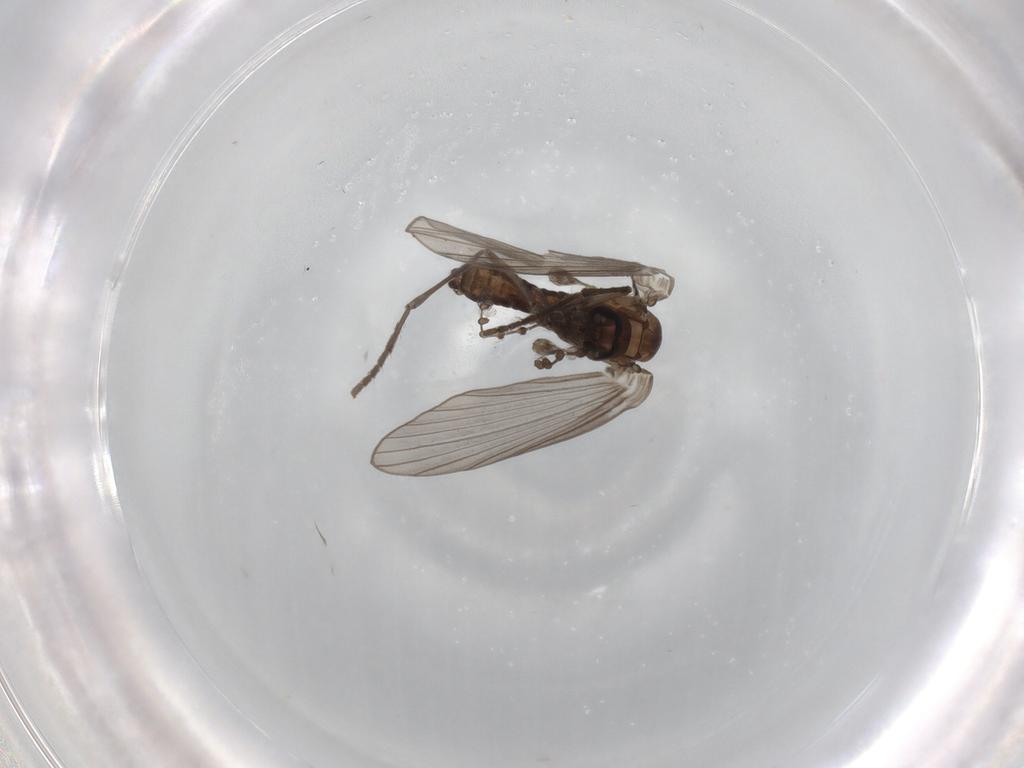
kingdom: Animalia
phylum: Arthropoda
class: Insecta
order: Diptera
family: Psychodidae
